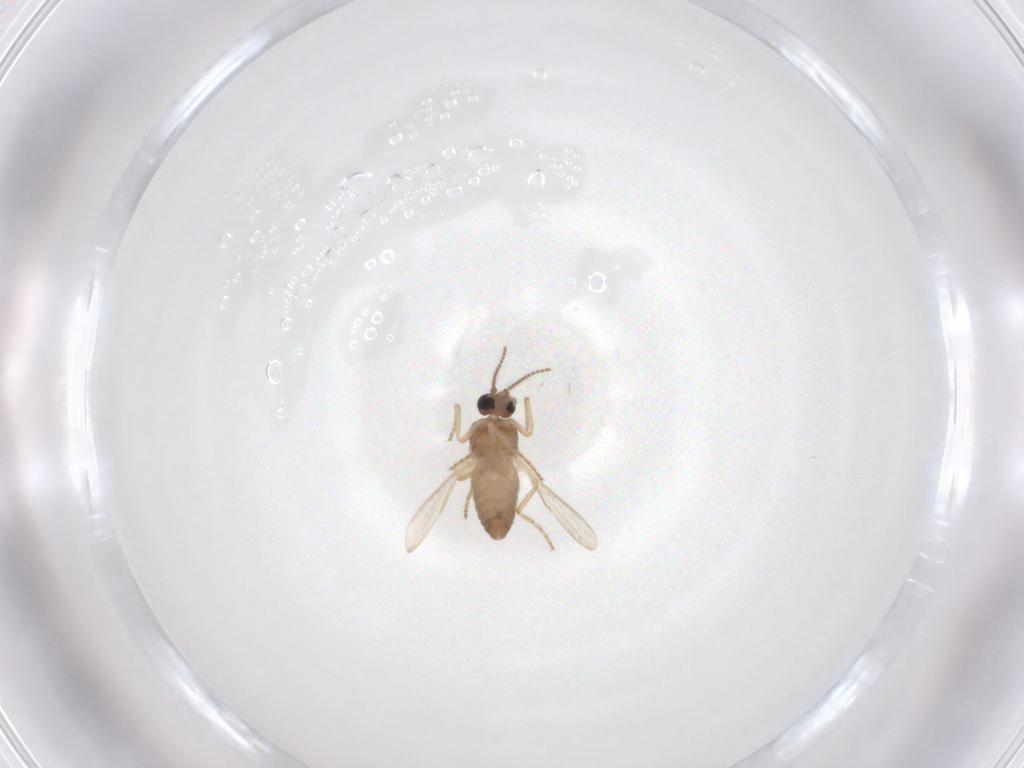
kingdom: Animalia
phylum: Arthropoda
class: Insecta
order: Diptera
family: Ceratopogonidae
